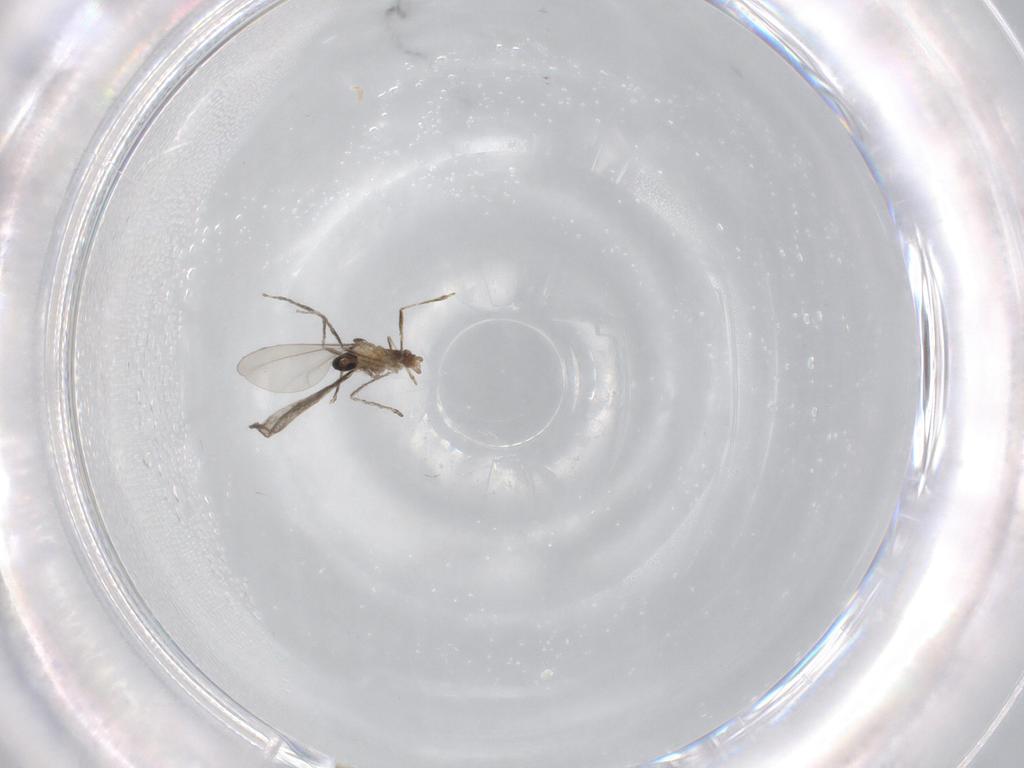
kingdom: Animalia
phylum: Arthropoda
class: Insecta
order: Diptera
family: Cecidomyiidae
